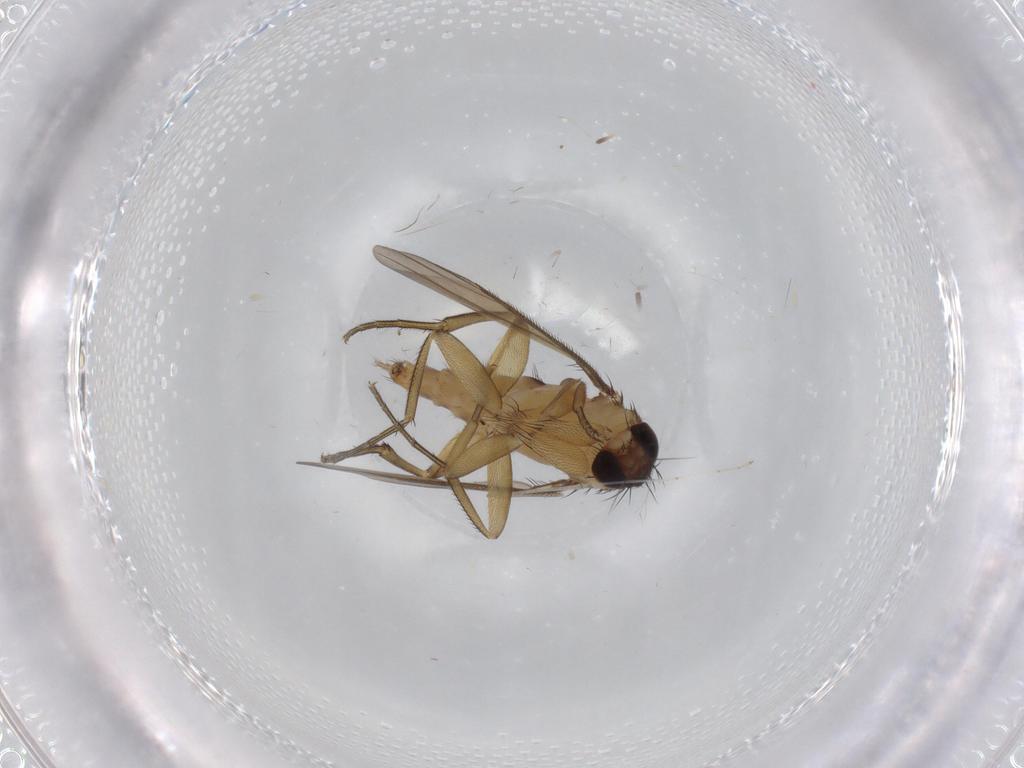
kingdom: Animalia
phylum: Arthropoda
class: Insecta
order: Diptera
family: Phoridae
